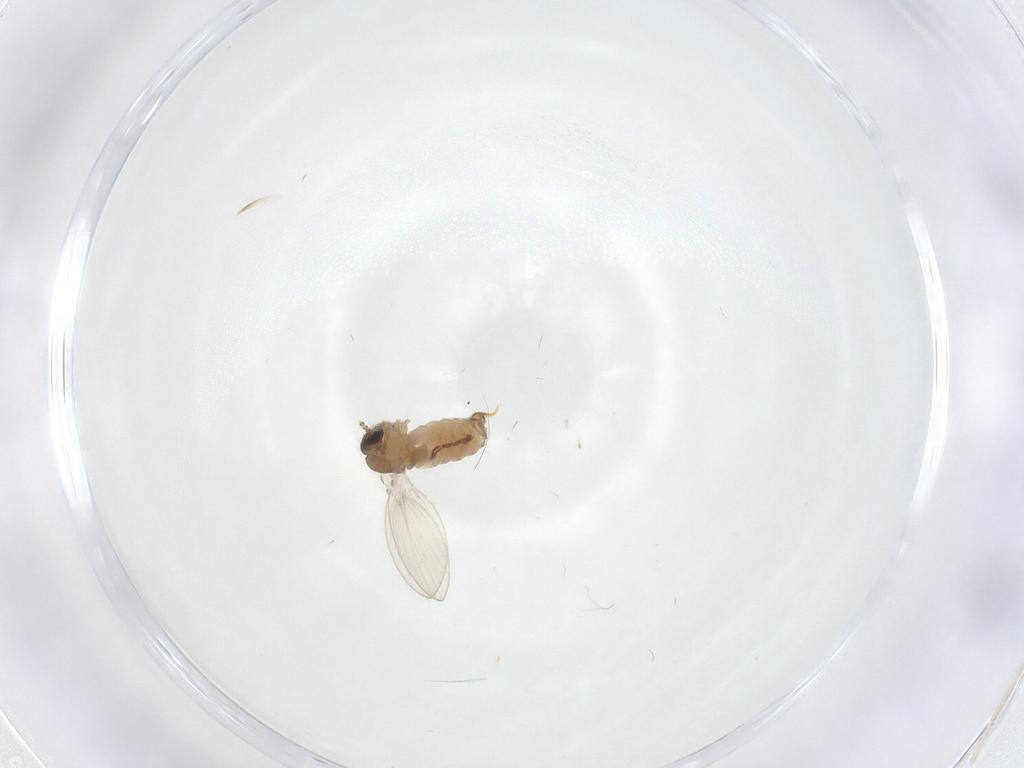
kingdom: Animalia
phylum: Arthropoda
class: Insecta
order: Diptera
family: Psychodidae
